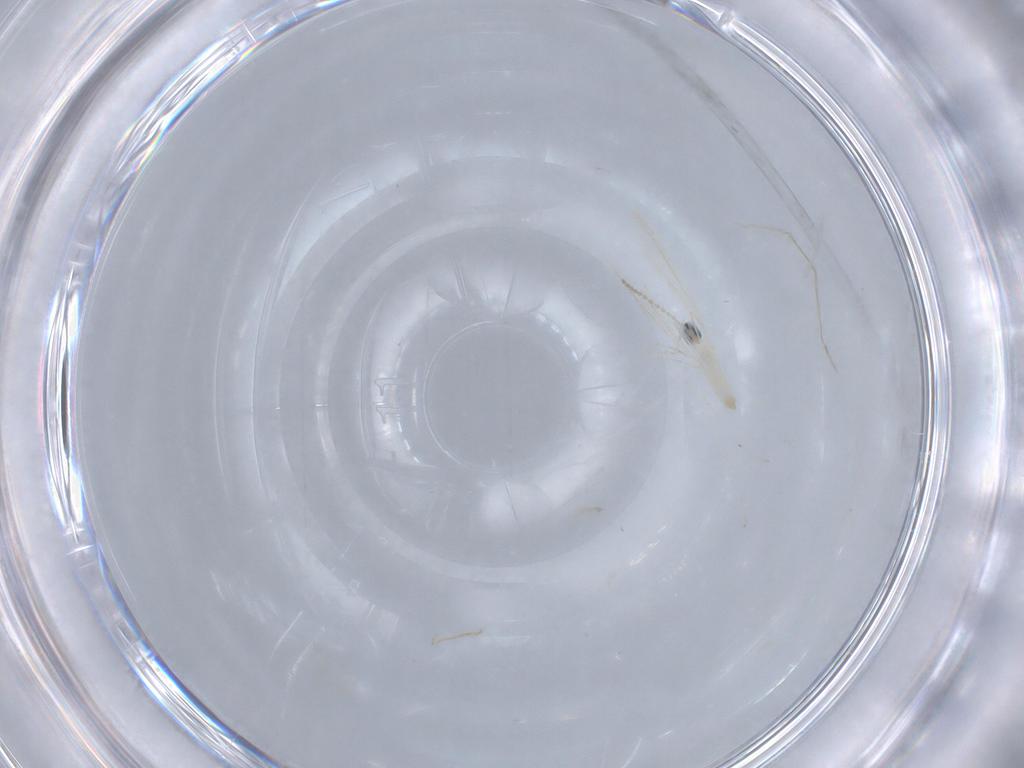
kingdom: Animalia
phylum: Arthropoda
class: Insecta
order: Diptera
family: Cecidomyiidae
